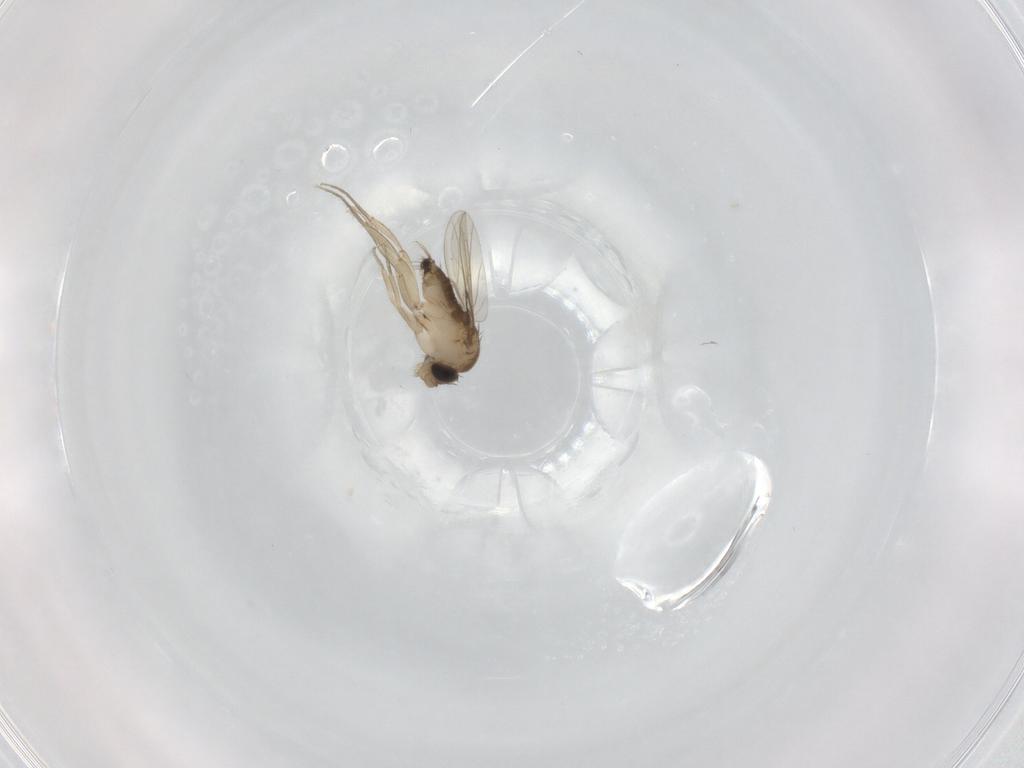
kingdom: Animalia
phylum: Arthropoda
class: Insecta
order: Diptera
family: Phoridae
